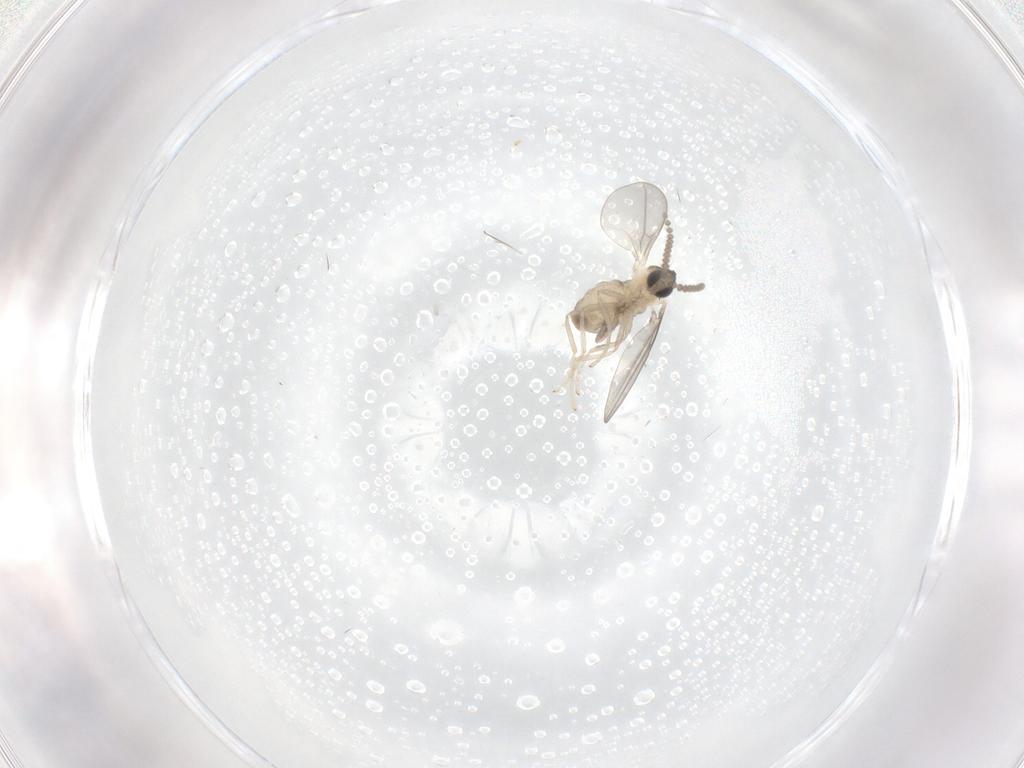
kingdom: Animalia
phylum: Arthropoda
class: Insecta
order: Diptera
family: Cecidomyiidae
